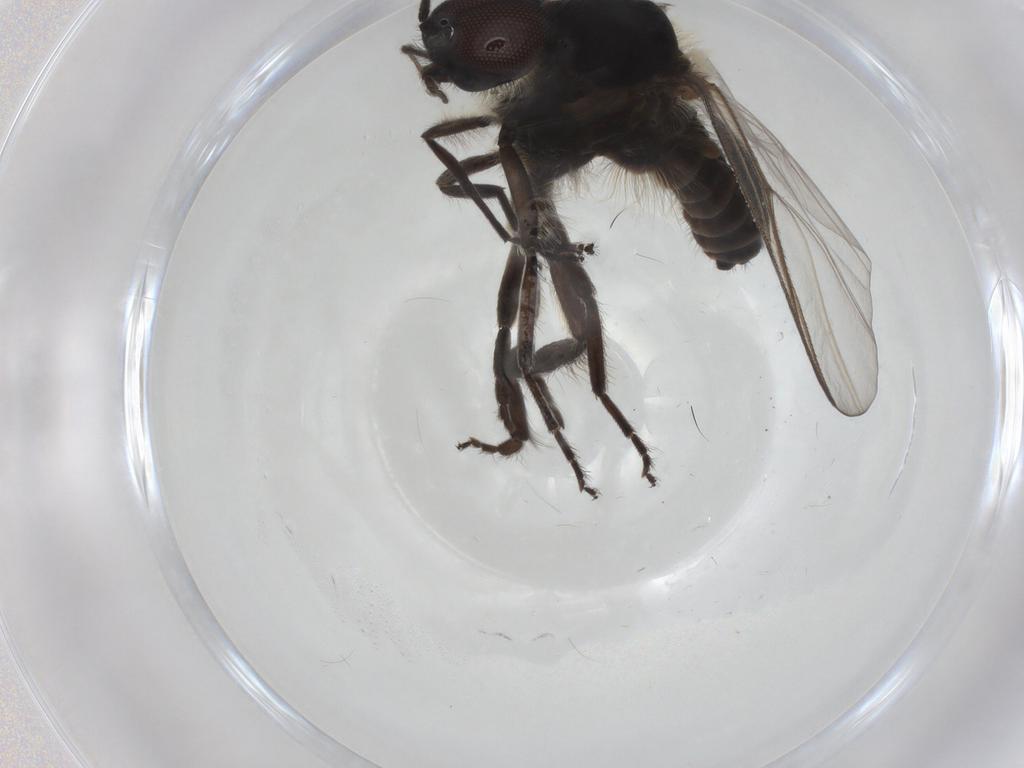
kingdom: Animalia
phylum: Arthropoda
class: Insecta
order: Diptera
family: Simuliidae
